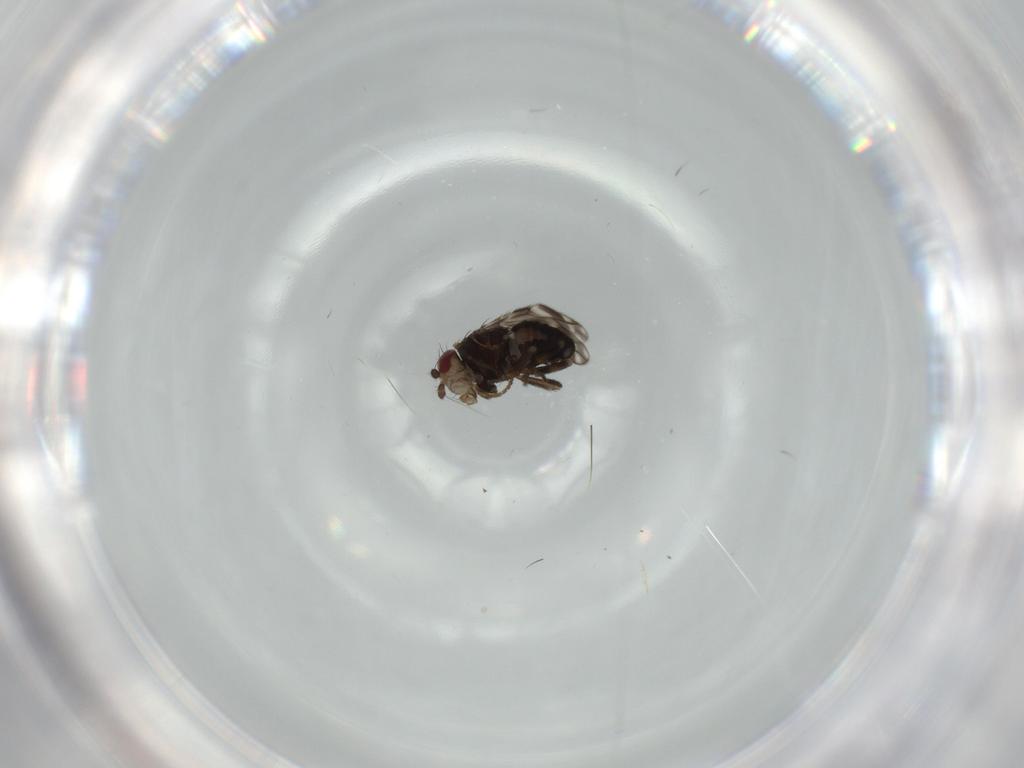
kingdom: Animalia
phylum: Arthropoda
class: Insecta
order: Diptera
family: Sphaeroceridae
